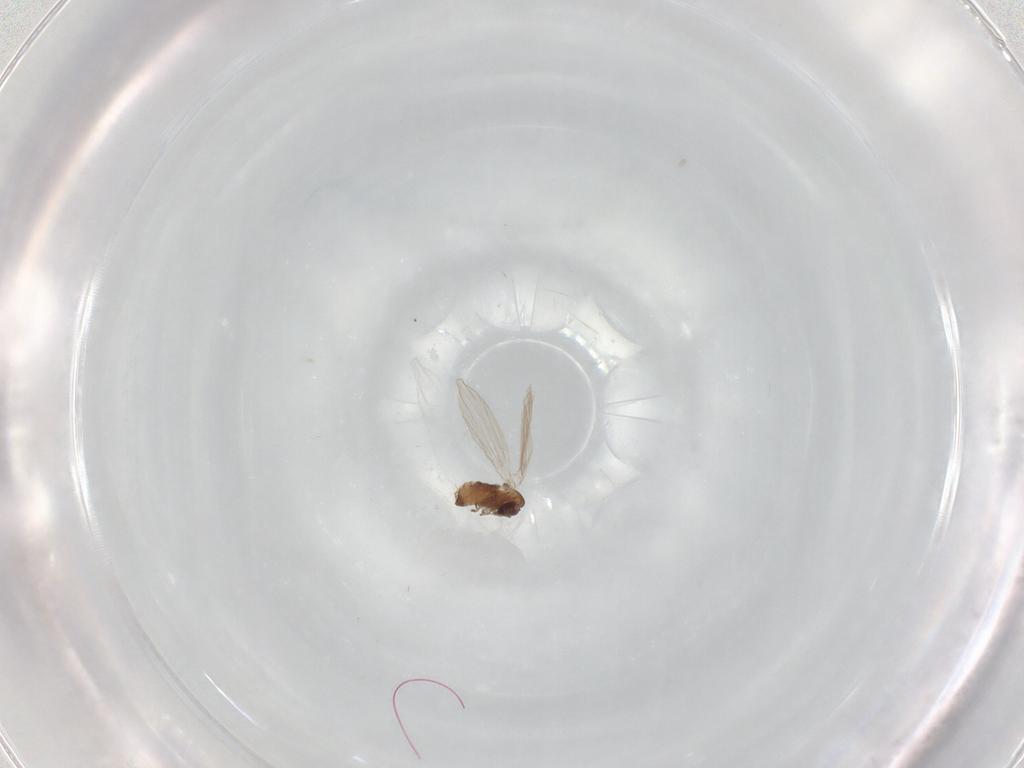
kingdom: Animalia
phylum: Arthropoda
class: Insecta
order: Diptera
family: Psychodidae
